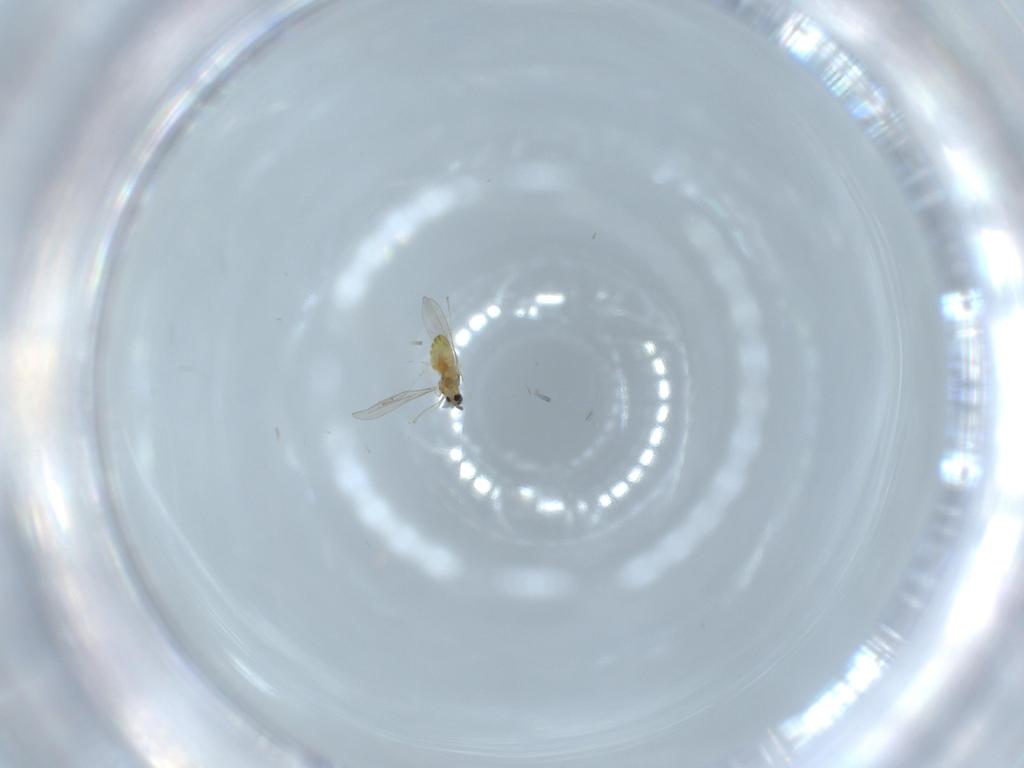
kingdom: Animalia
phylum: Arthropoda
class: Insecta
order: Diptera
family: Cecidomyiidae
